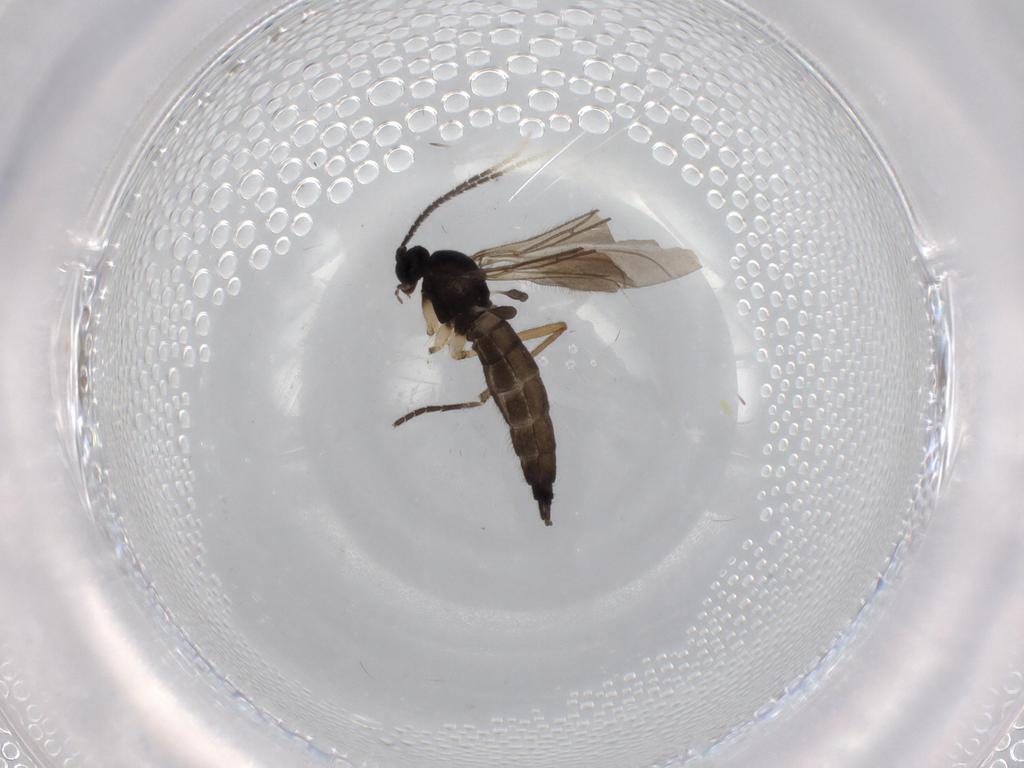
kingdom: Animalia
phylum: Arthropoda
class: Insecta
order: Diptera
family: Sciaridae
